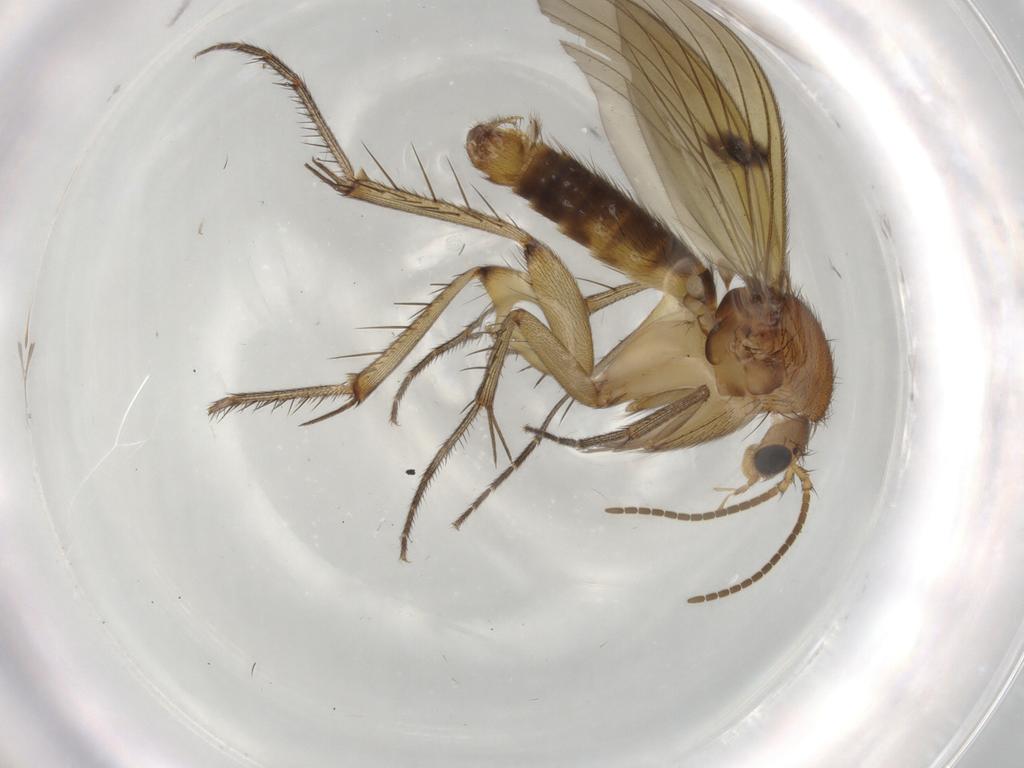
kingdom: Animalia
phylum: Arthropoda
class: Insecta
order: Diptera
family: Mycetophilidae
